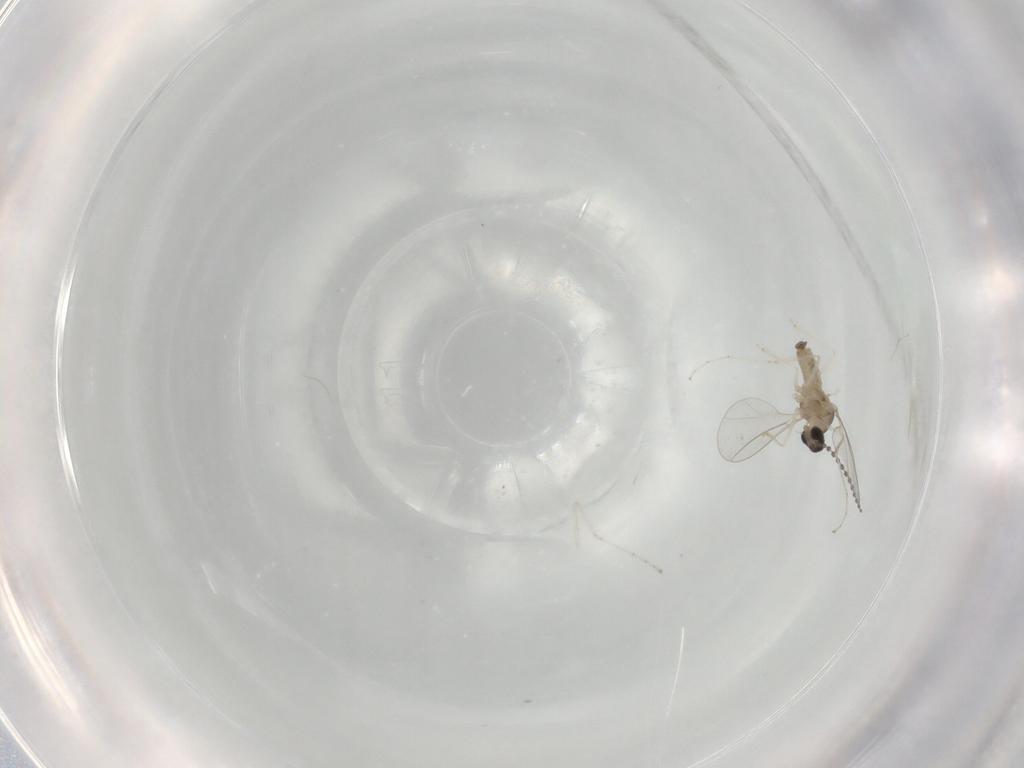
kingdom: Animalia
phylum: Arthropoda
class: Insecta
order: Diptera
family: Cecidomyiidae
